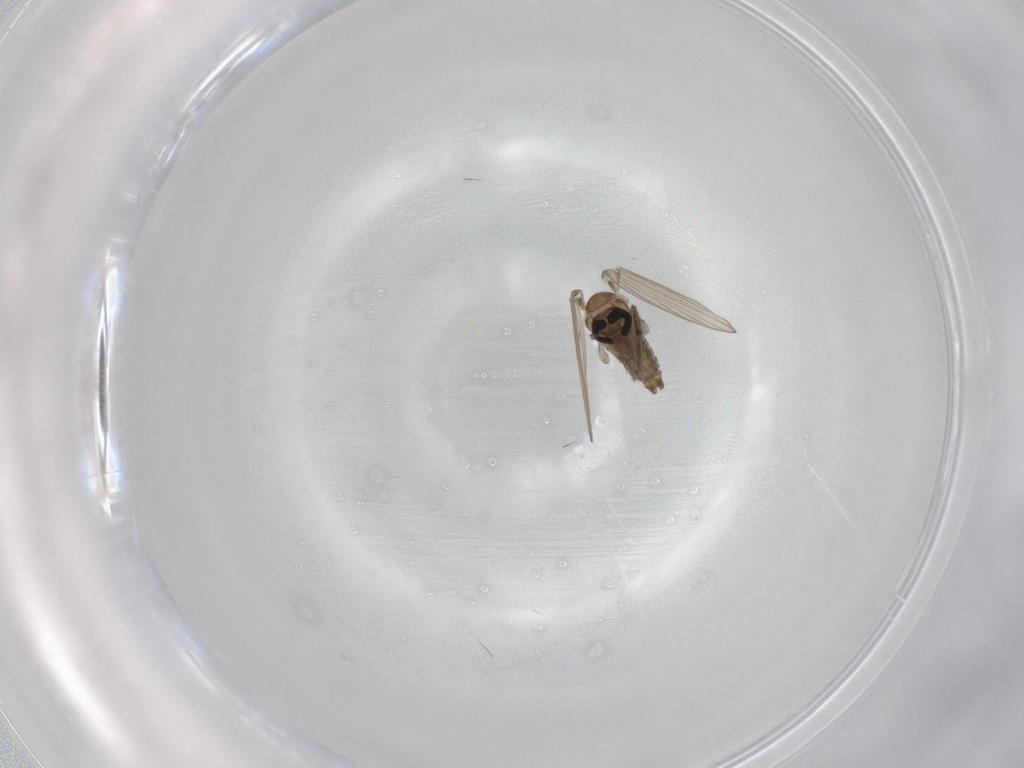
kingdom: Animalia
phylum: Arthropoda
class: Insecta
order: Diptera
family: Psychodidae
